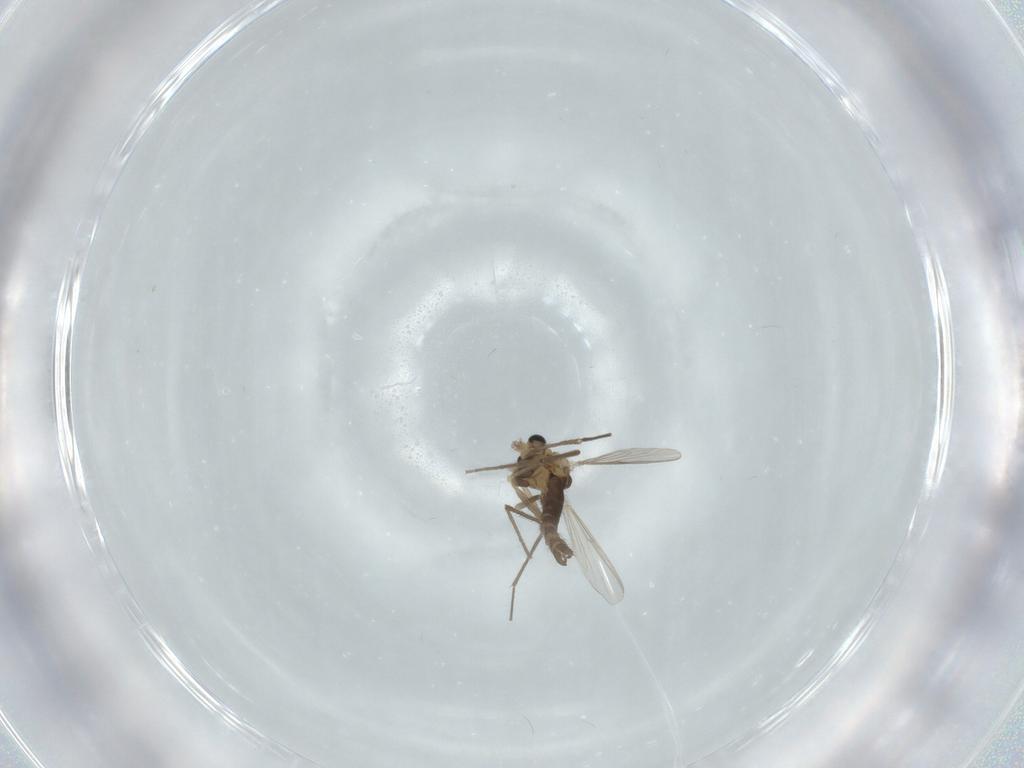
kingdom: Animalia
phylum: Arthropoda
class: Insecta
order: Diptera
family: Chironomidae
